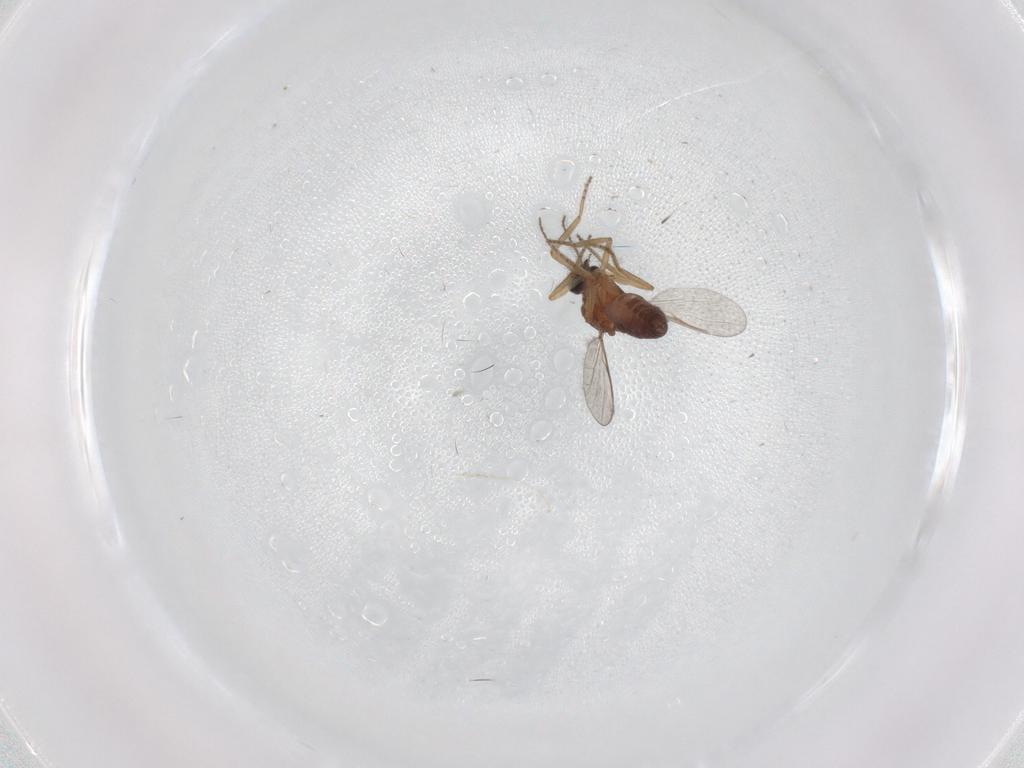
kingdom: Animalia
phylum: Arthropoda
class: Insecta
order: Diptera
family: Ceratopogonidae
